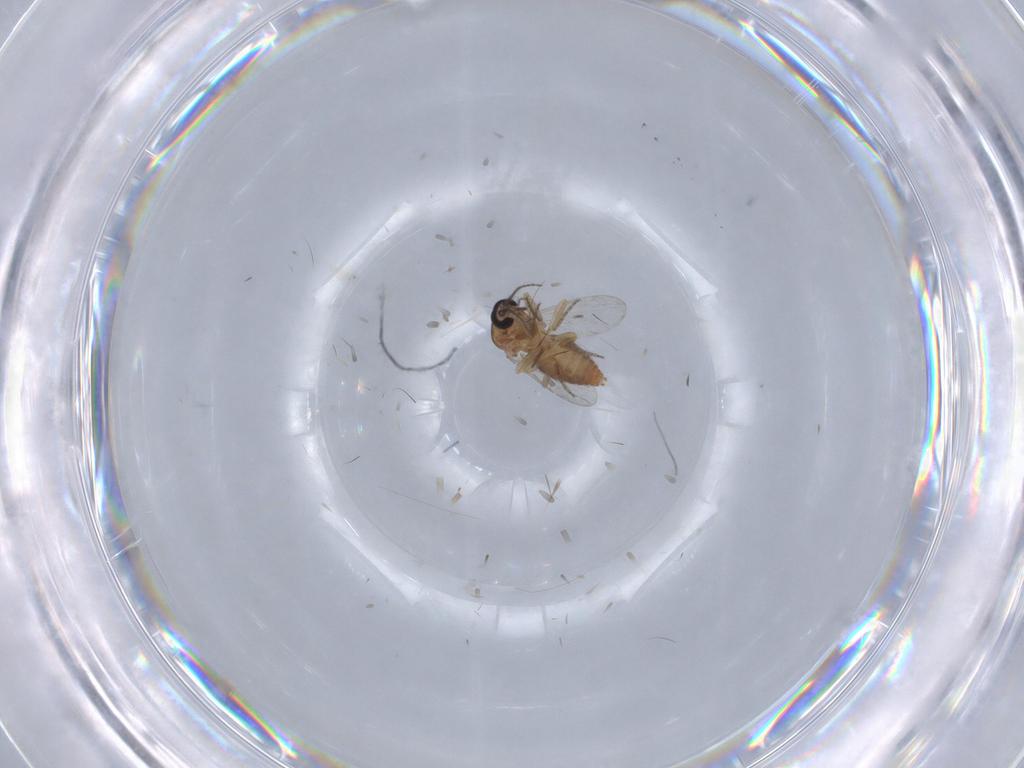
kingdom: Animalia
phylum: Arthropoda
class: Insecta
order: Diptera
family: Ceratopogonidae
